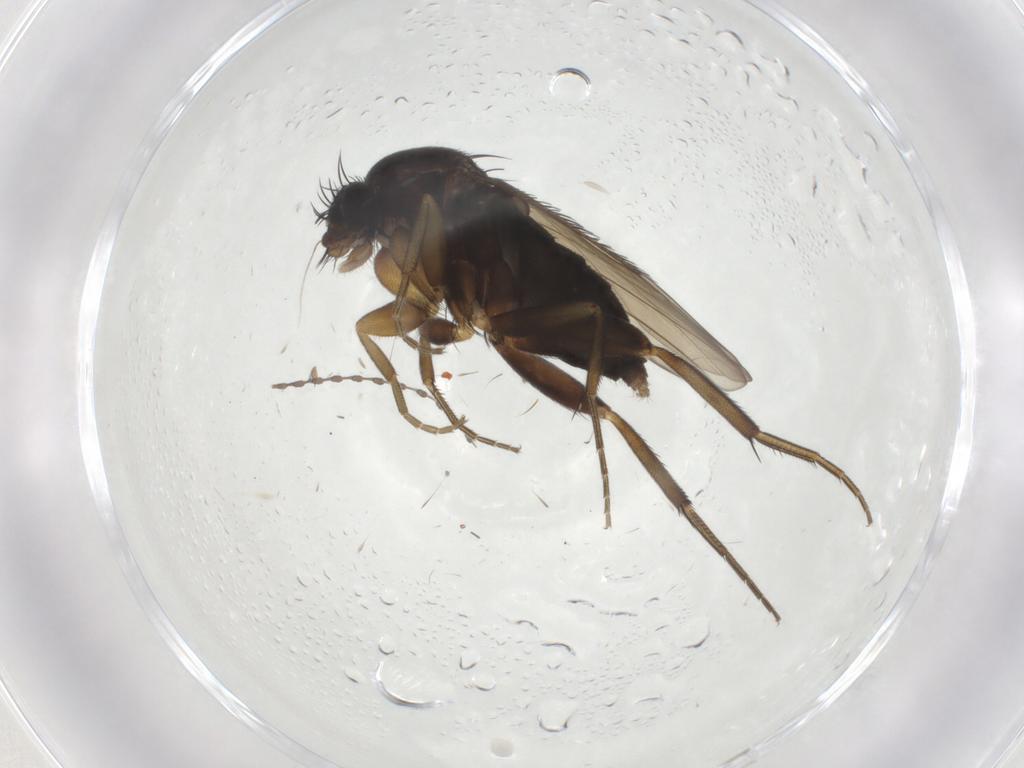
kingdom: Animalia
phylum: Arthropoda
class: Insecta
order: Diptera
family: Phoridae
